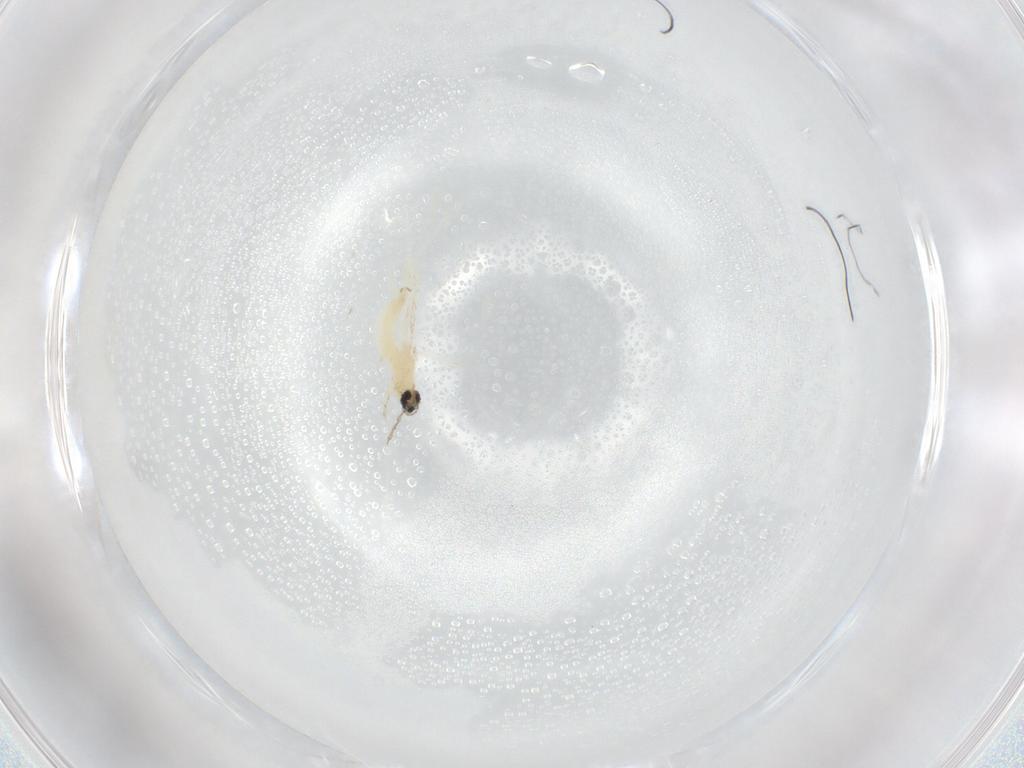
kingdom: Animalia
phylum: Arthropoda
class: Insecta
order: Diptera
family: Cecidomyiidae
